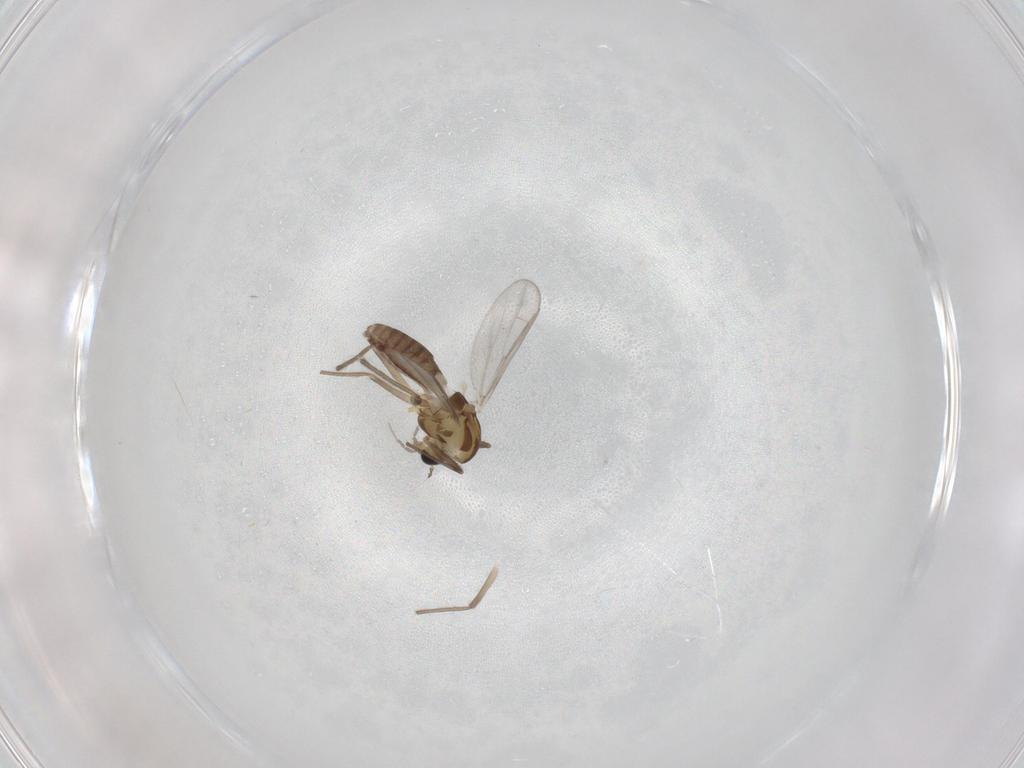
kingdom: Animalia
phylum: Arthropoda
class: Insecta
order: Diptera
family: Chironomidae
